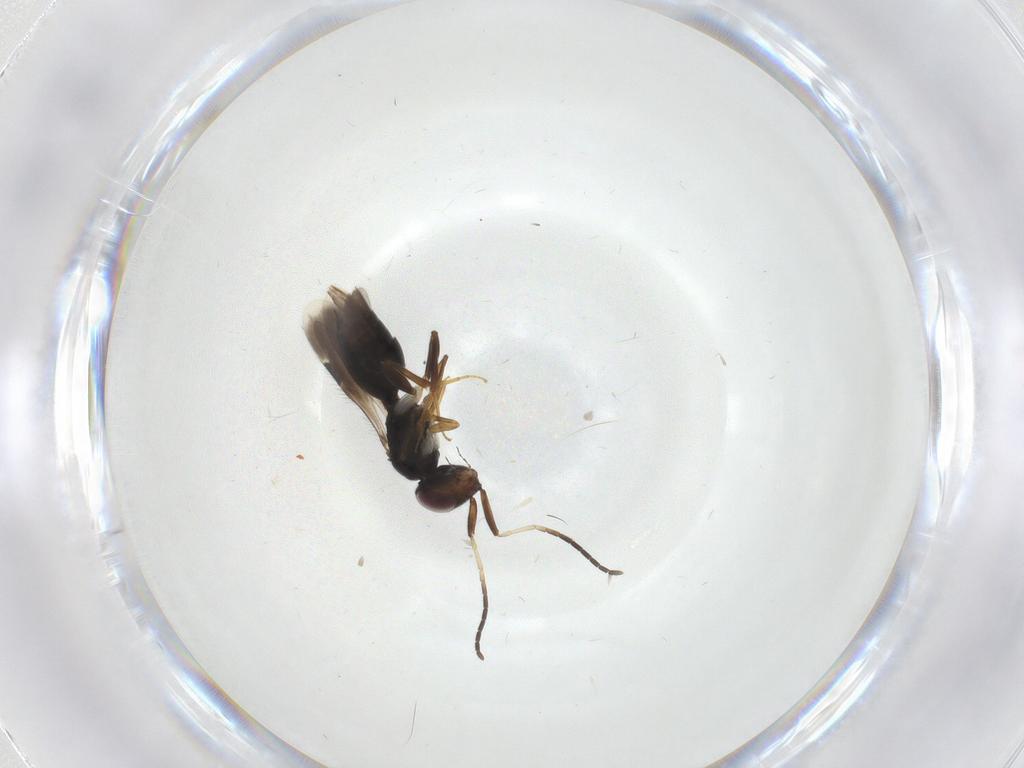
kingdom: Animalia
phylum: Arthropoda
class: Insecta
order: Hymenoptera
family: Megaspilidae
